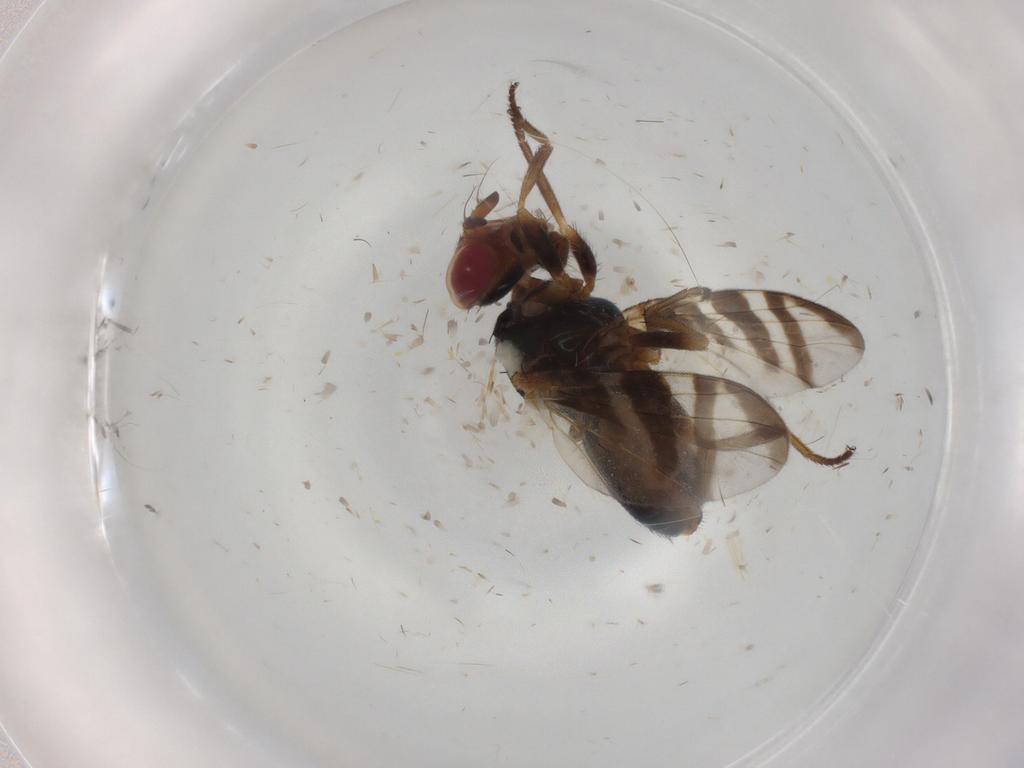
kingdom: Animalia
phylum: Arthropoda
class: Insecta
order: Diptera
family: Platystomatidae
